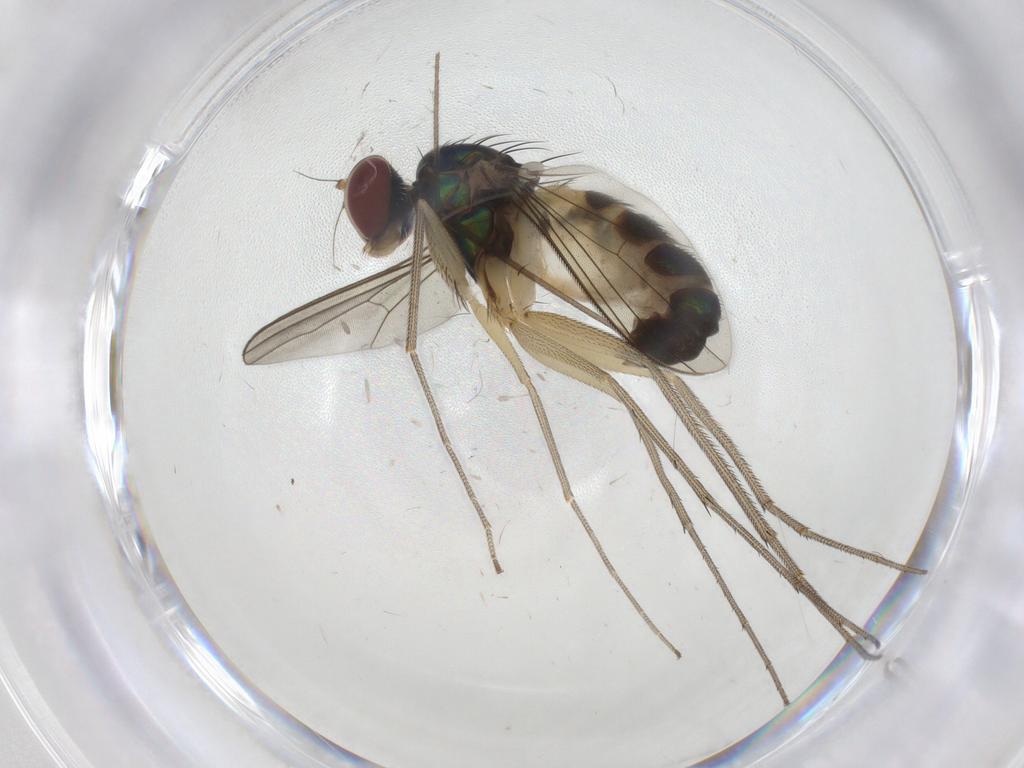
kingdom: Animalia
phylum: Arthropoda
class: Insecta
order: Diptera
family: Dolichopodidae
